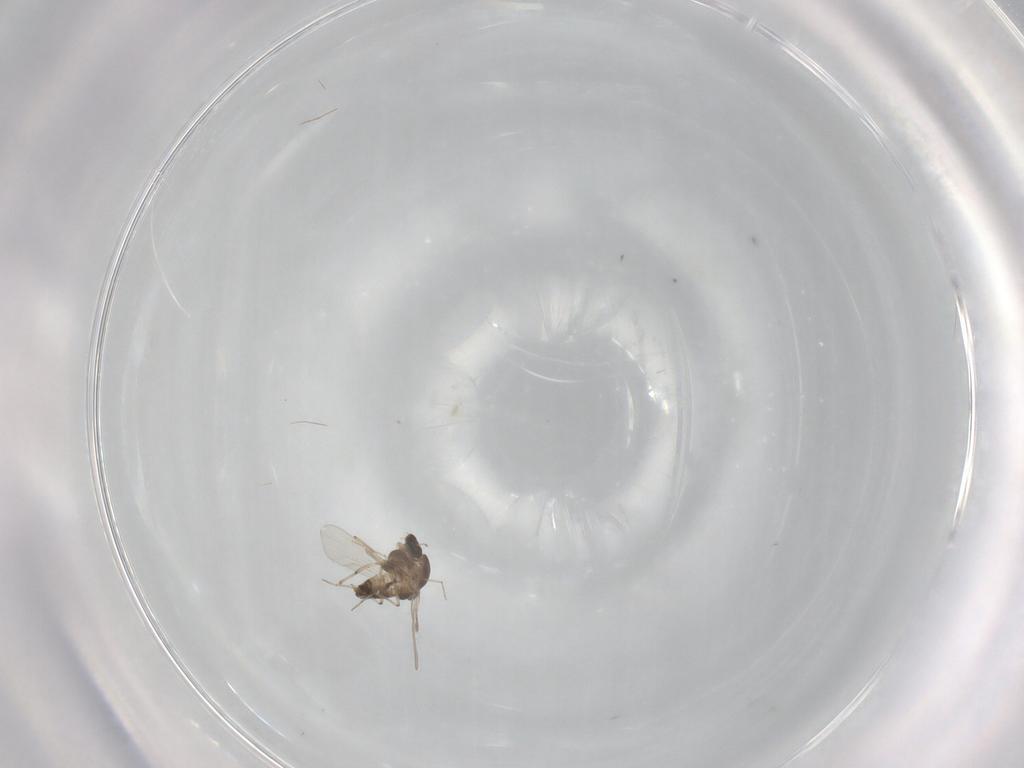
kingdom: Animalia
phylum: Arthropoda
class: Insecta
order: Diptera
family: Chironomidae
